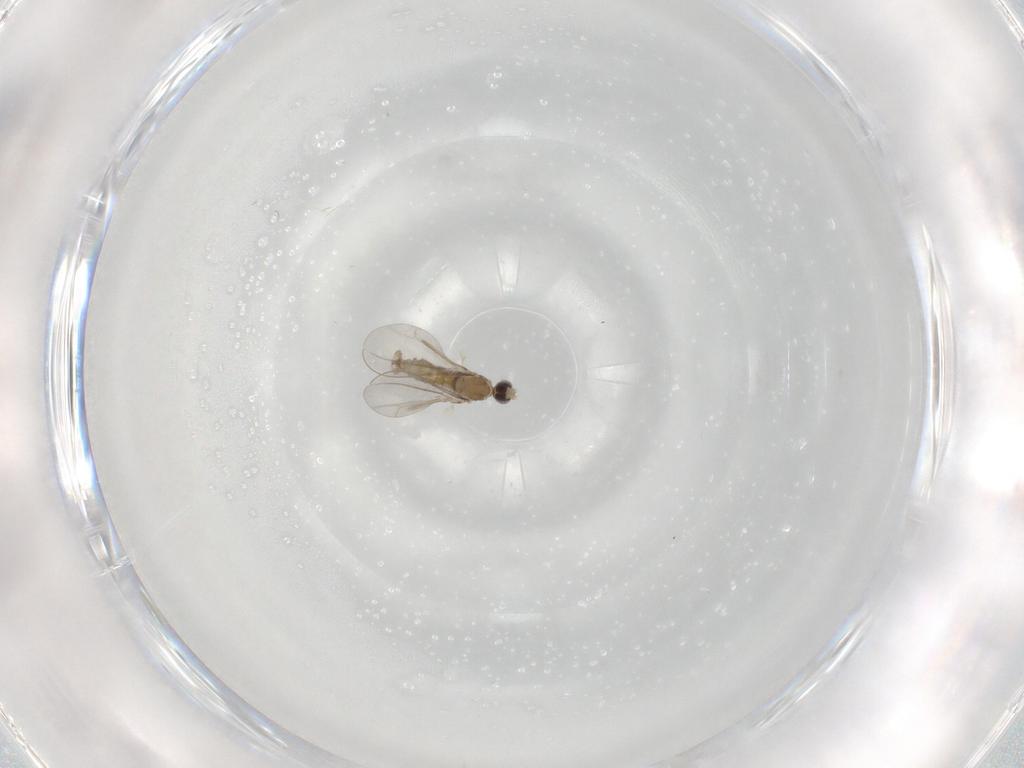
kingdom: Animalia
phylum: Arthropoda
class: Insecta
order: Diptera
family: Cecidomyiidae
